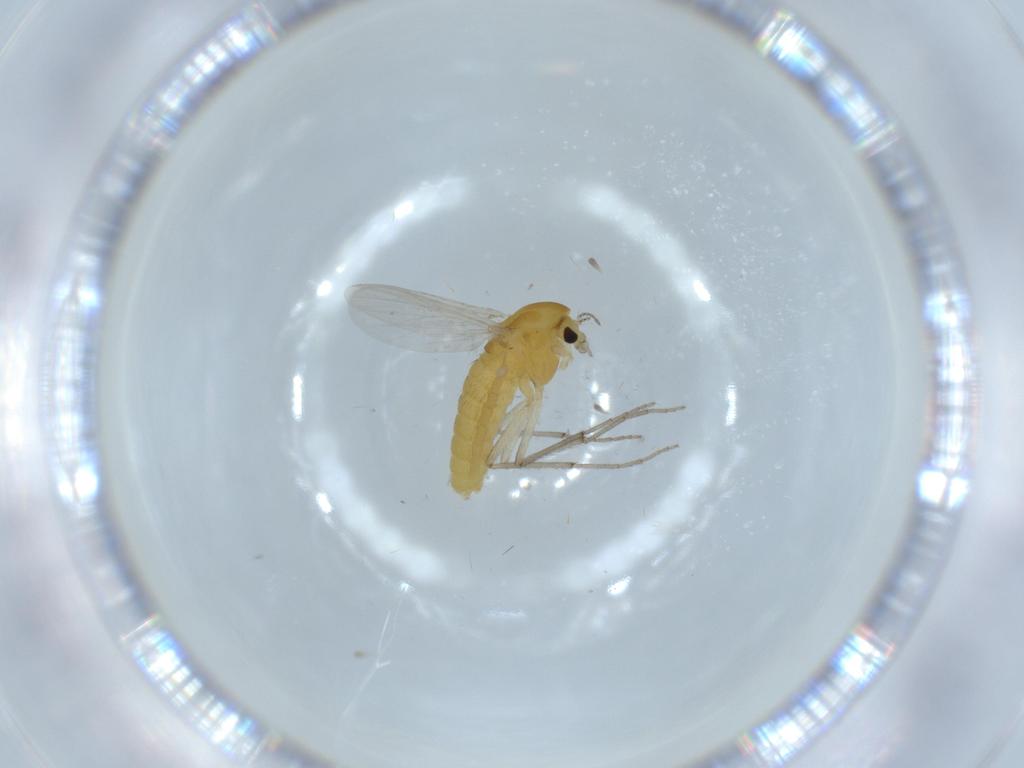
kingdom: Animalia
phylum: Arthropoda
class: Insecta
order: Diptera
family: Chironomidae
